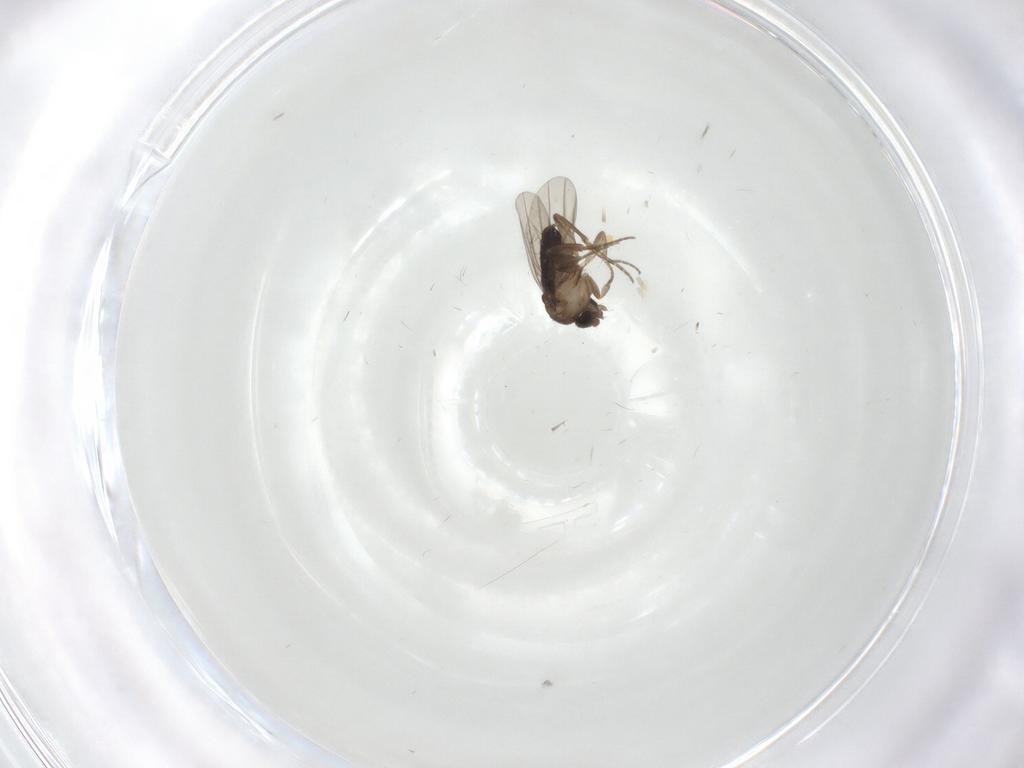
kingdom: Animalia
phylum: Arthropoda
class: Insecta
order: Diptera
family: Phoridae
